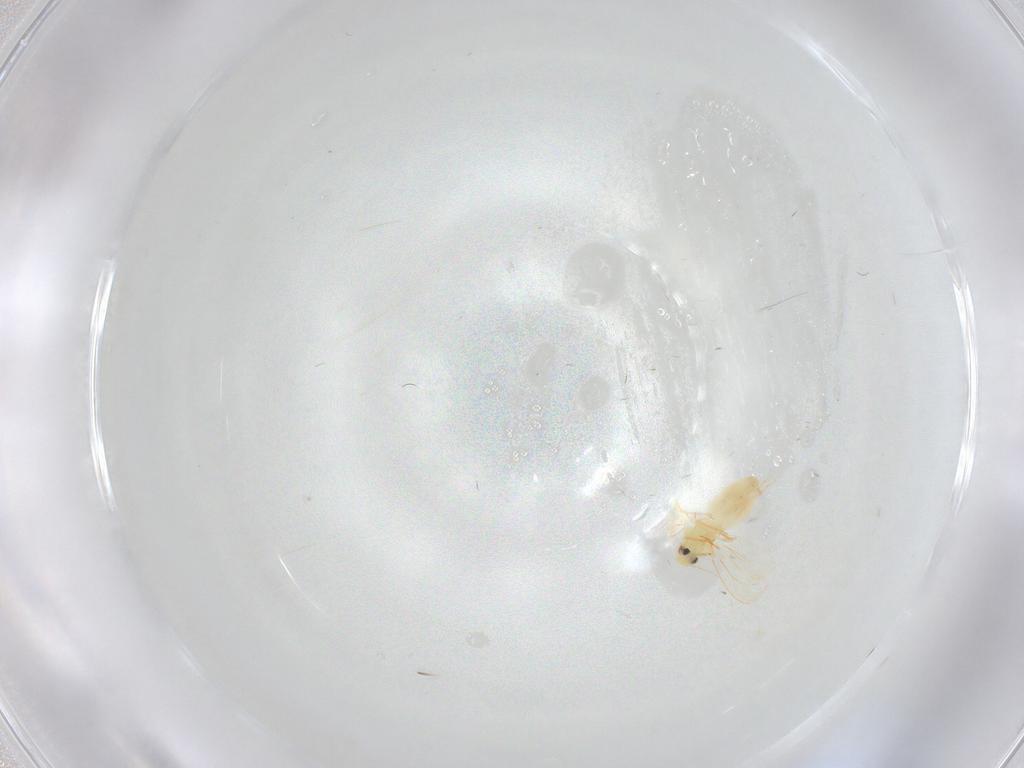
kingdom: Animalia
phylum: Arthropoda
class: Insecta
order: Hemiptera
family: Aleyrodidae
